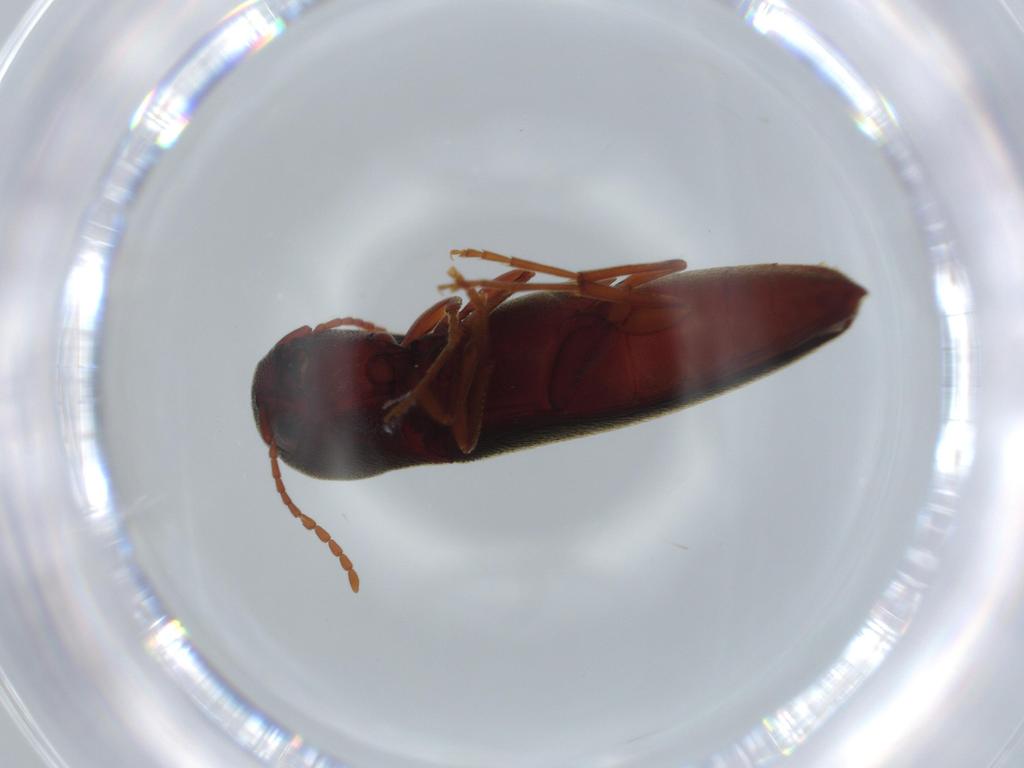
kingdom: Animalia
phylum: Arthropoda
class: Insecta
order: Coleoptera
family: Eucnemidae
